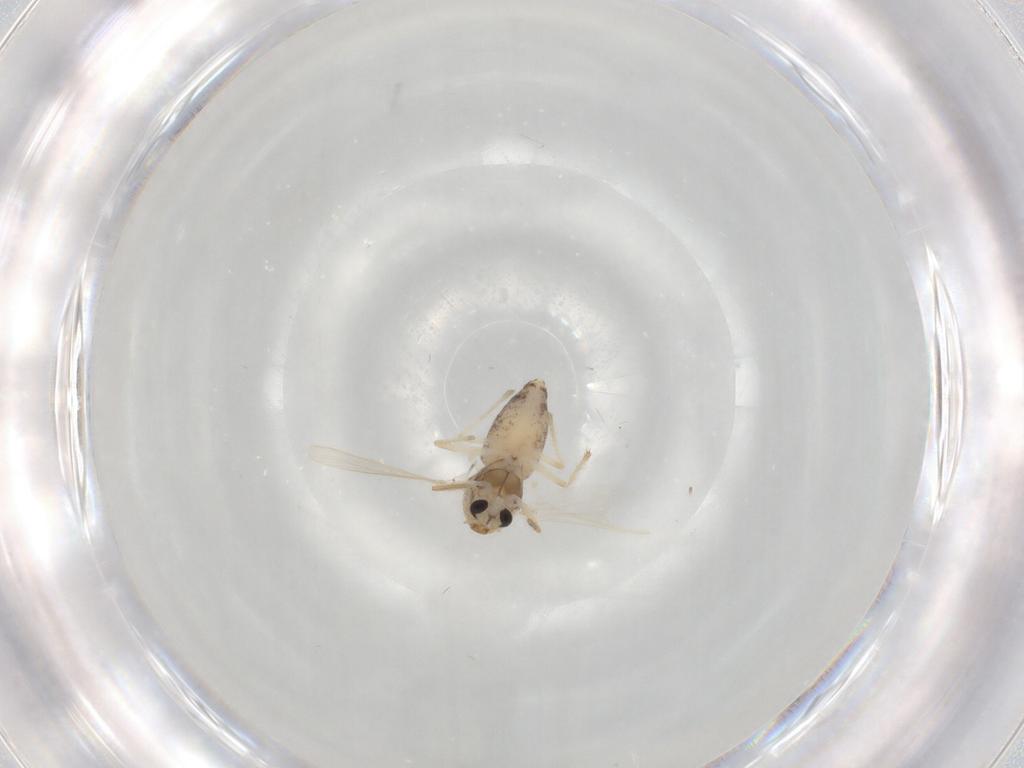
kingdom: Animalia
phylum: Arthropoda
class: Insecta
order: Diptera
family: Chironomidae
